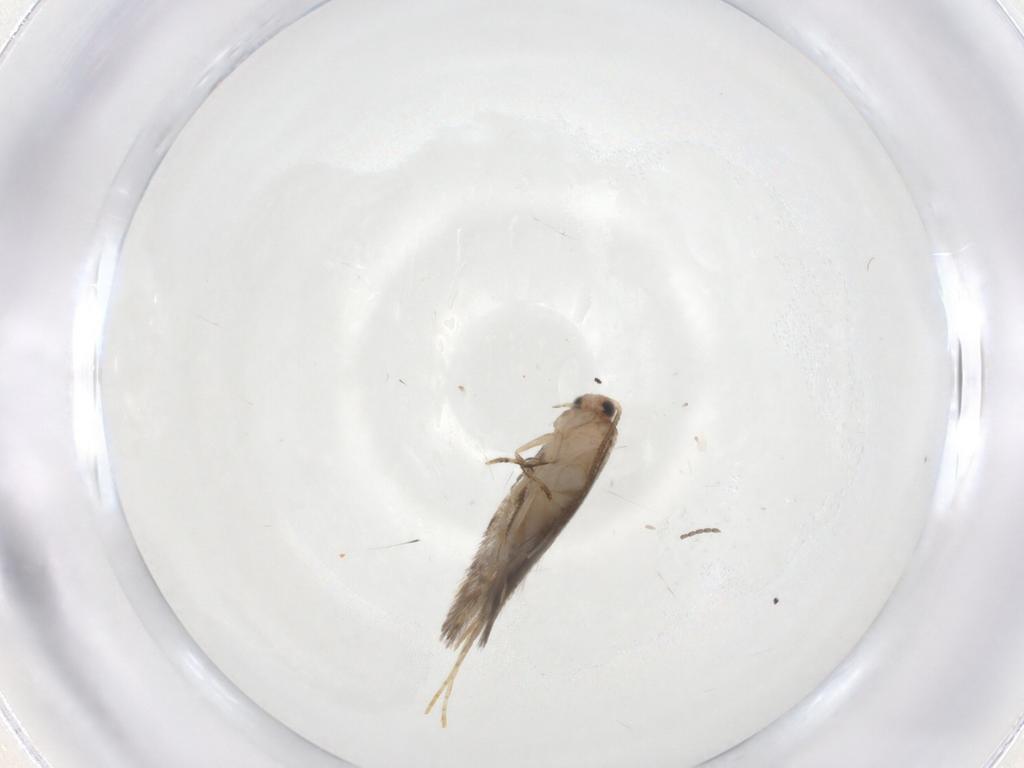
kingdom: Animalia
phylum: Arthropoda
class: Insecta
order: Lepidoptera
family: Tineidae
